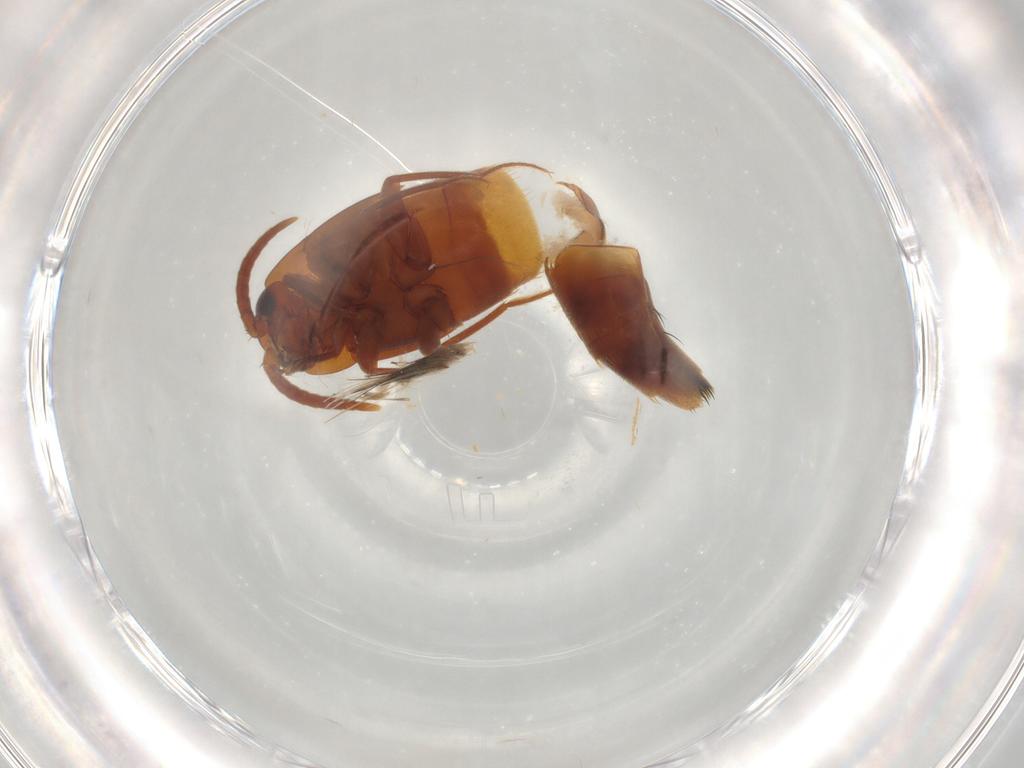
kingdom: Animalia
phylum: Arthropoda
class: Insecta
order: Coleoptera
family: Staphylinidae
